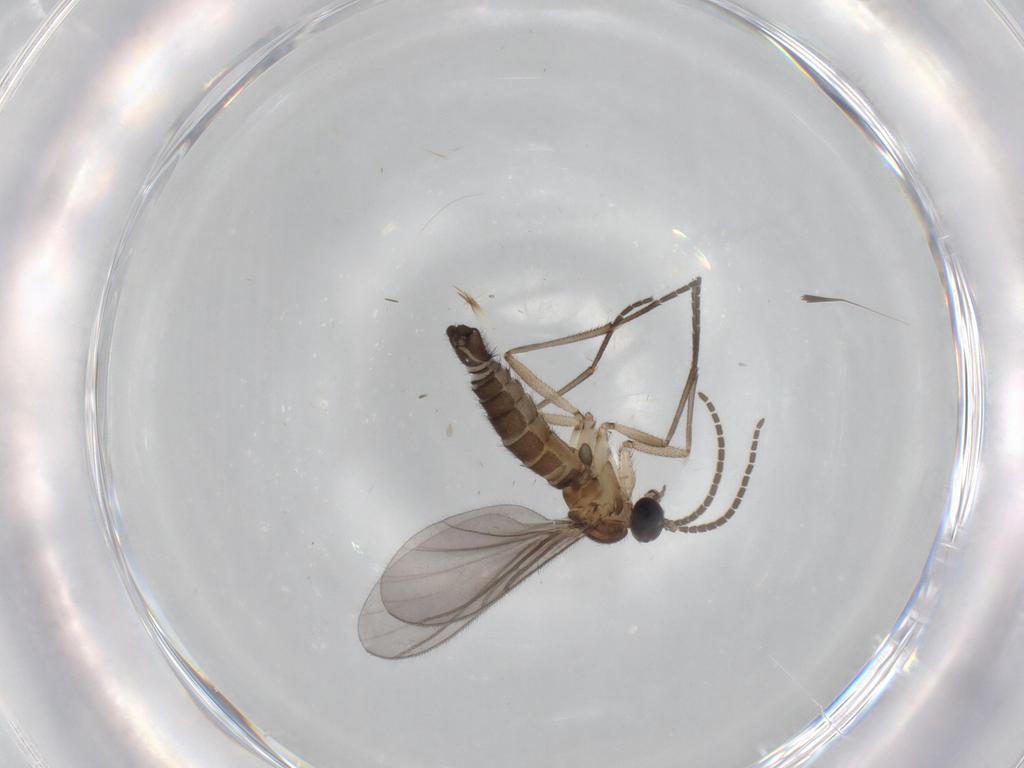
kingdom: Animalia
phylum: Arthropoda
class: Insecta
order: Diptera
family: Sciaridae
